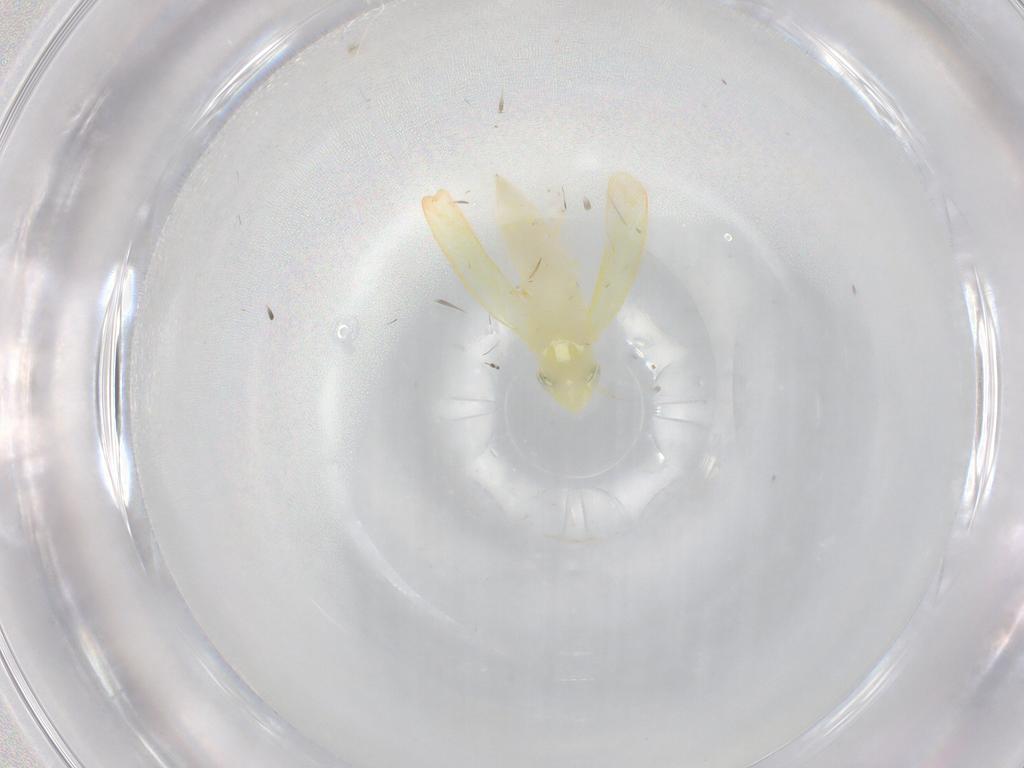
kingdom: Animalia
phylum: Arthropoda
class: Insecta
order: Hemiptera
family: Cicadellidae
